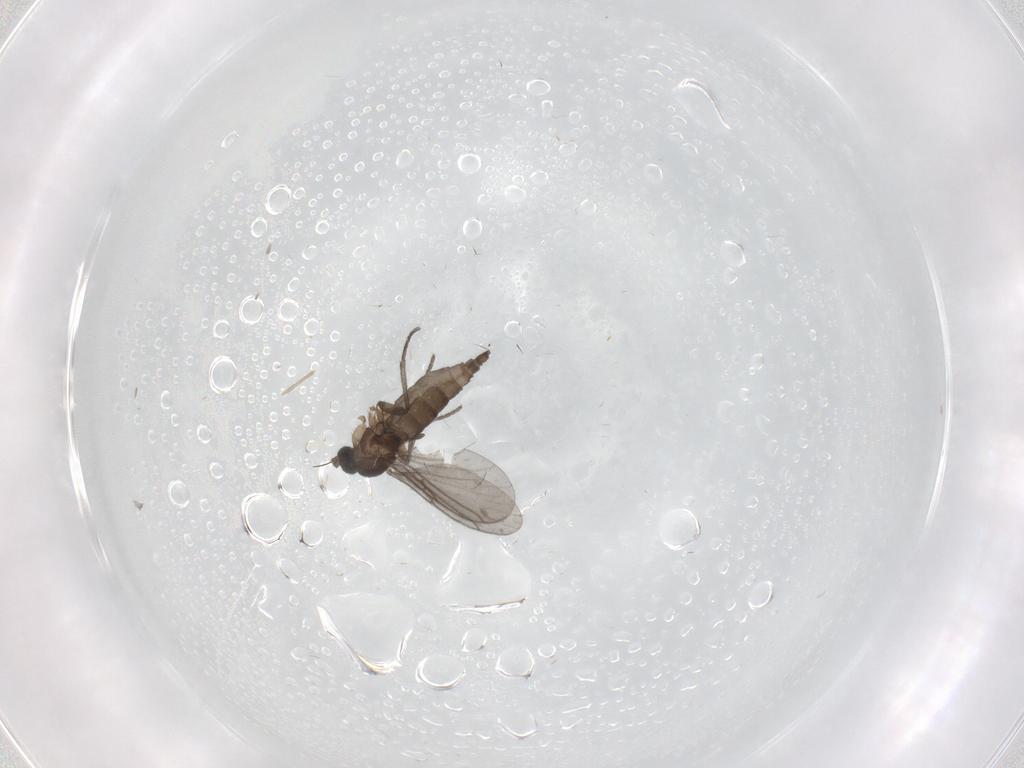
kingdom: Animalia
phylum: Arthropoda
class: Insecta
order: Diptera
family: Cecidomyiidae
